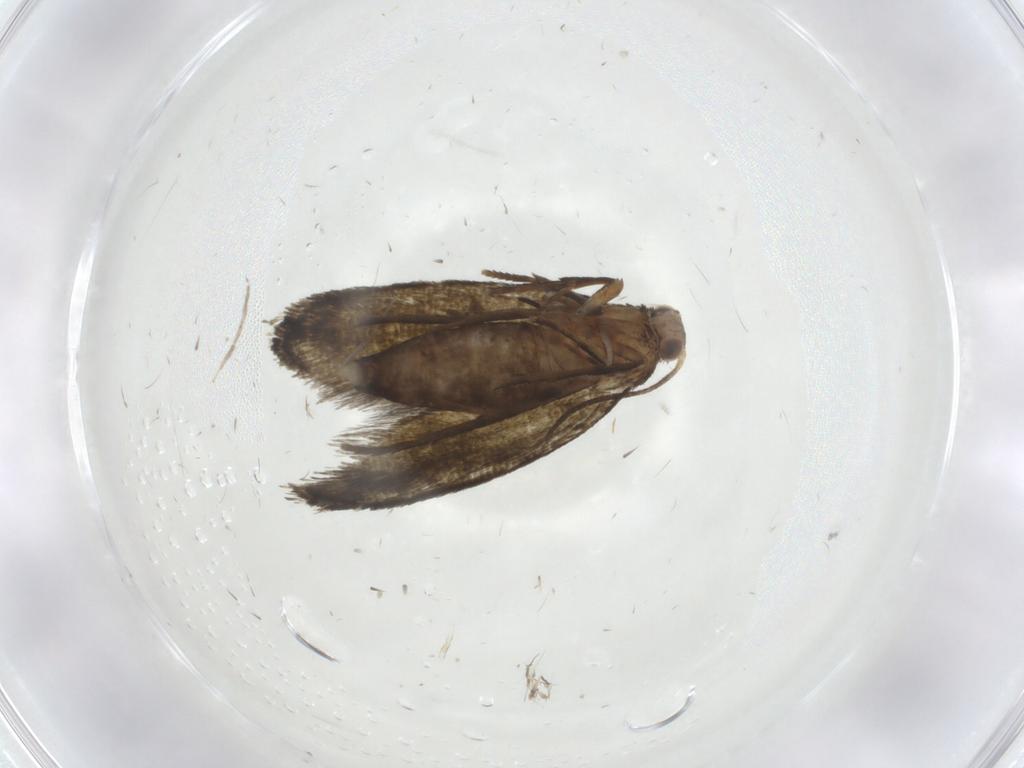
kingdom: Animalia
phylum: Arthropoda
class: Insecta
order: Lepidoptera
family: Tineidae
